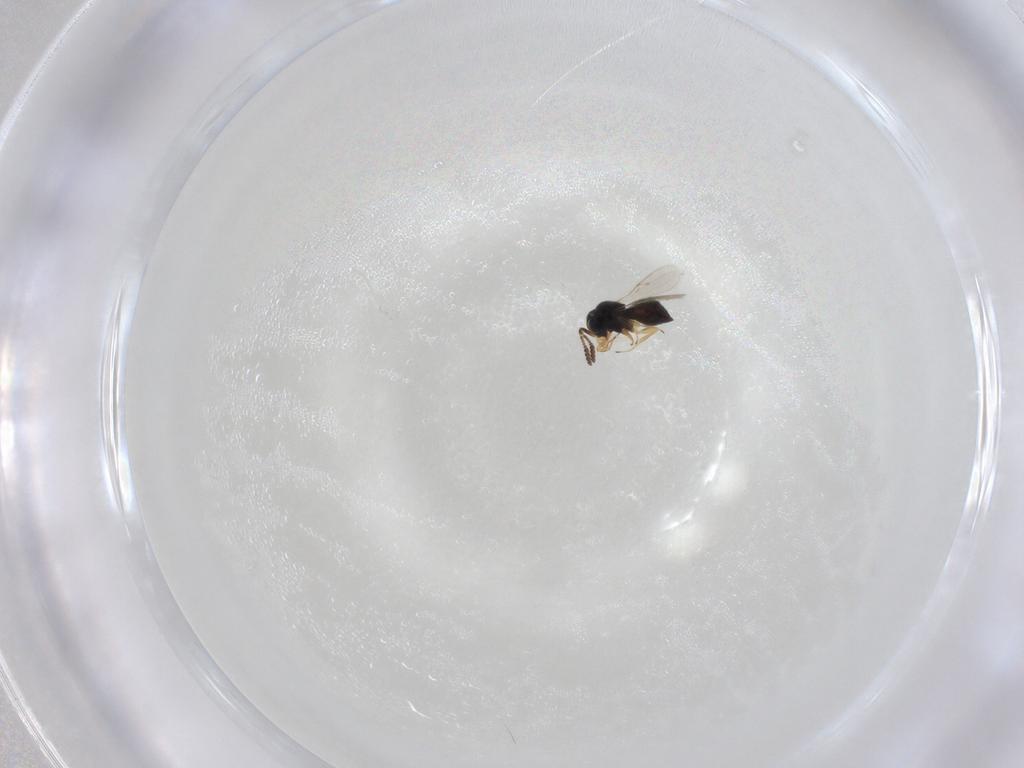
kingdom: Animalia
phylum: Arthropoda
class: Insecta
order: Hymenoptera
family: Scelionidae
